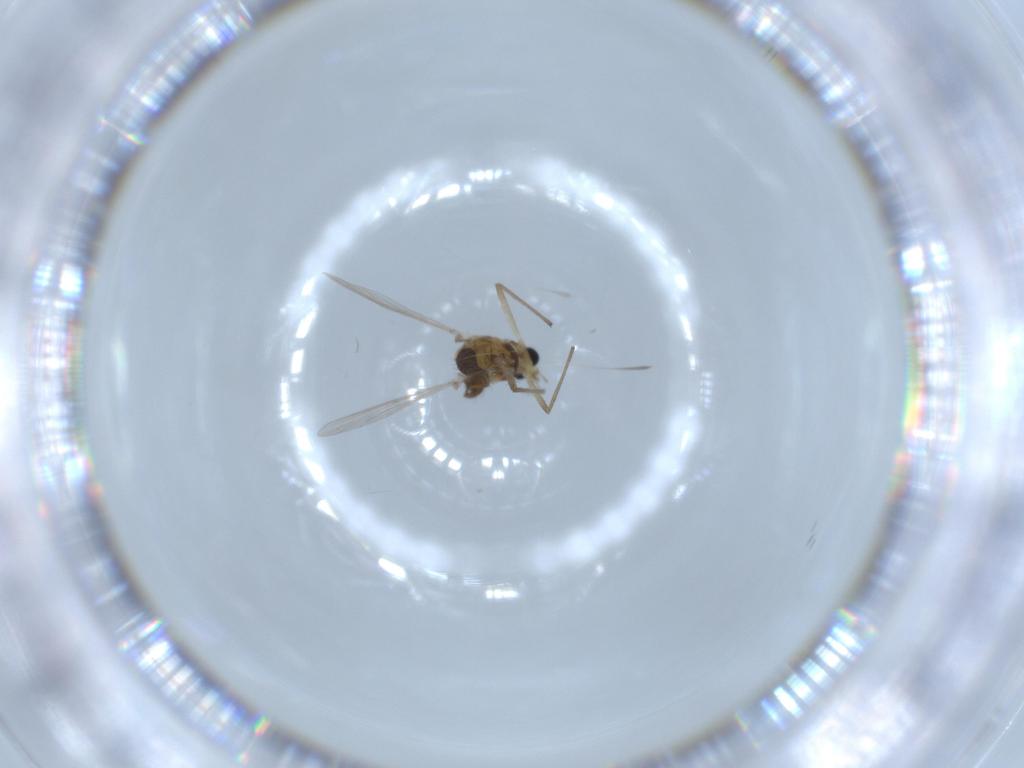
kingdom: Animalia
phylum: Arthropoda
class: Insecta
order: Diptera
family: Chironomidae
